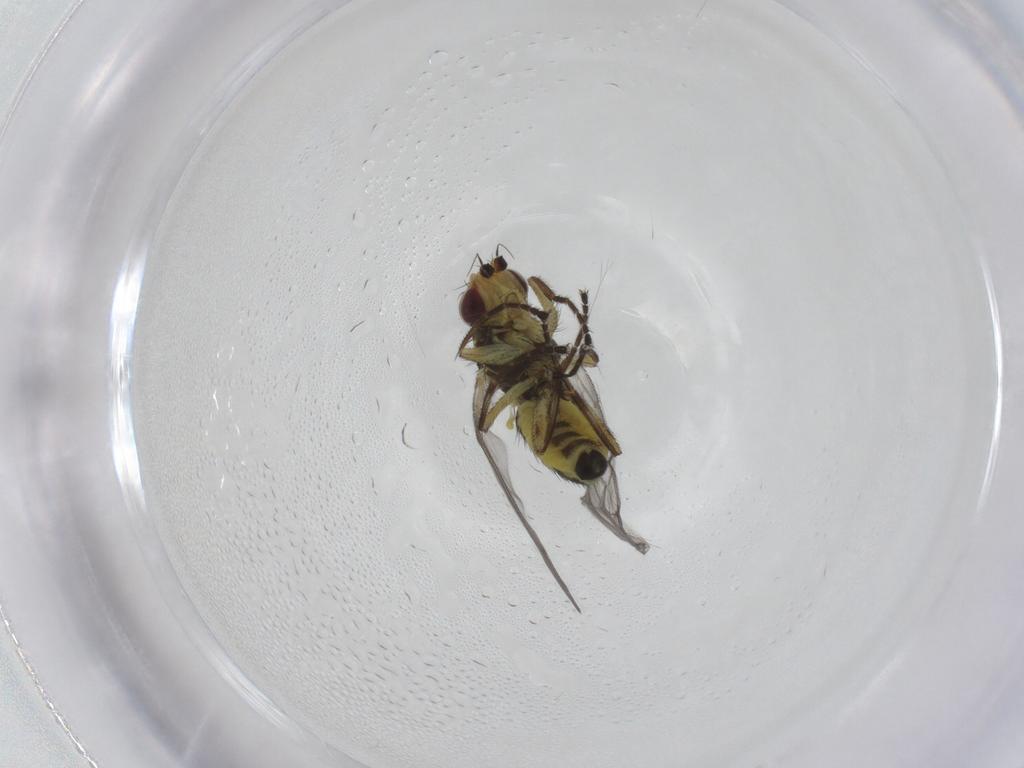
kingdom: Animalia
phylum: Arthropoda
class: Insecta
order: Diptera
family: Agromyzidae
